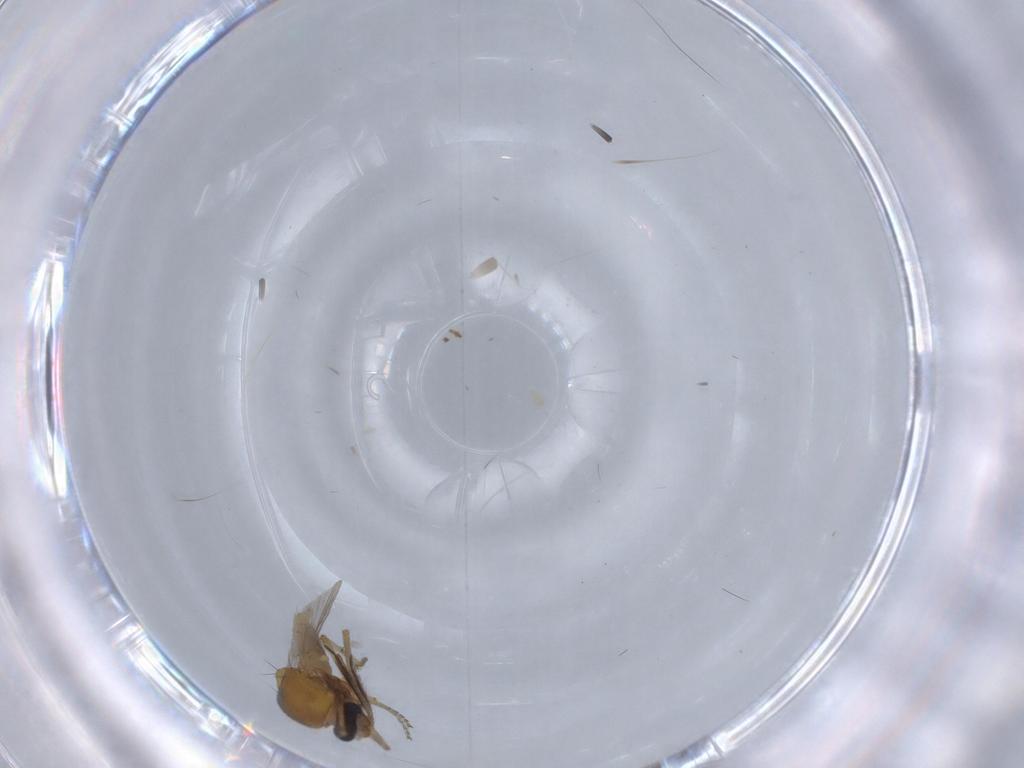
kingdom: Animalia
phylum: Arthropoda
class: Insecta
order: Diptera
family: Ceratopogonidae
